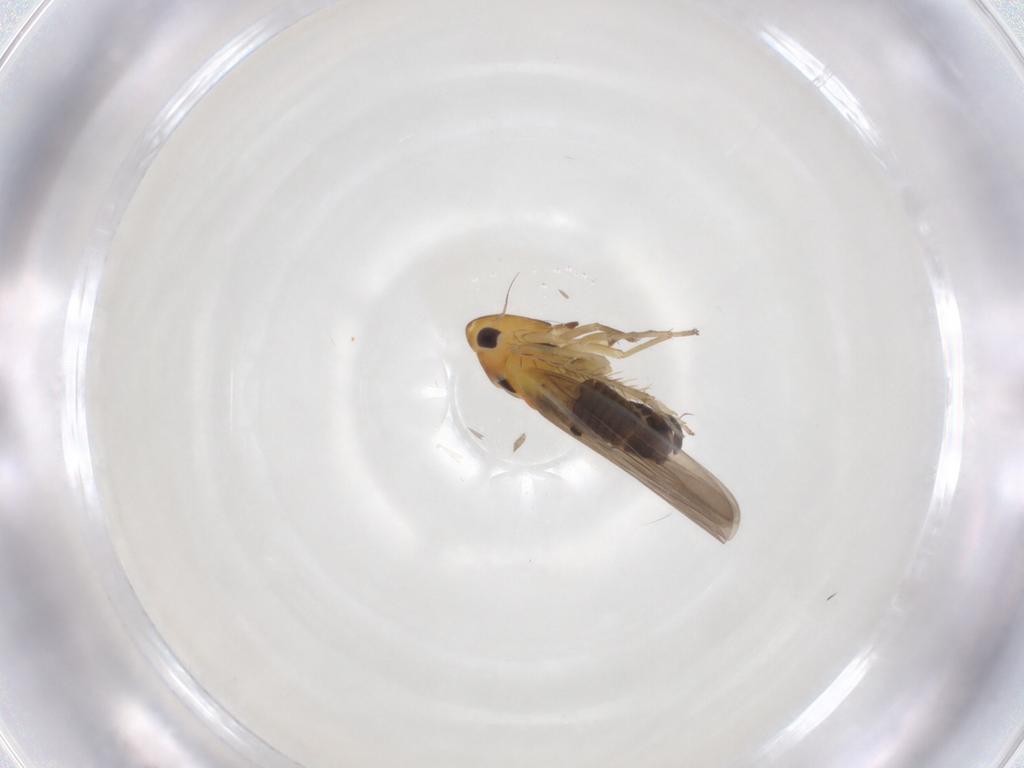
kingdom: Animalia
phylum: Arthropoda
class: Insecta
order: Hemiptera
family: Cicadellidae
